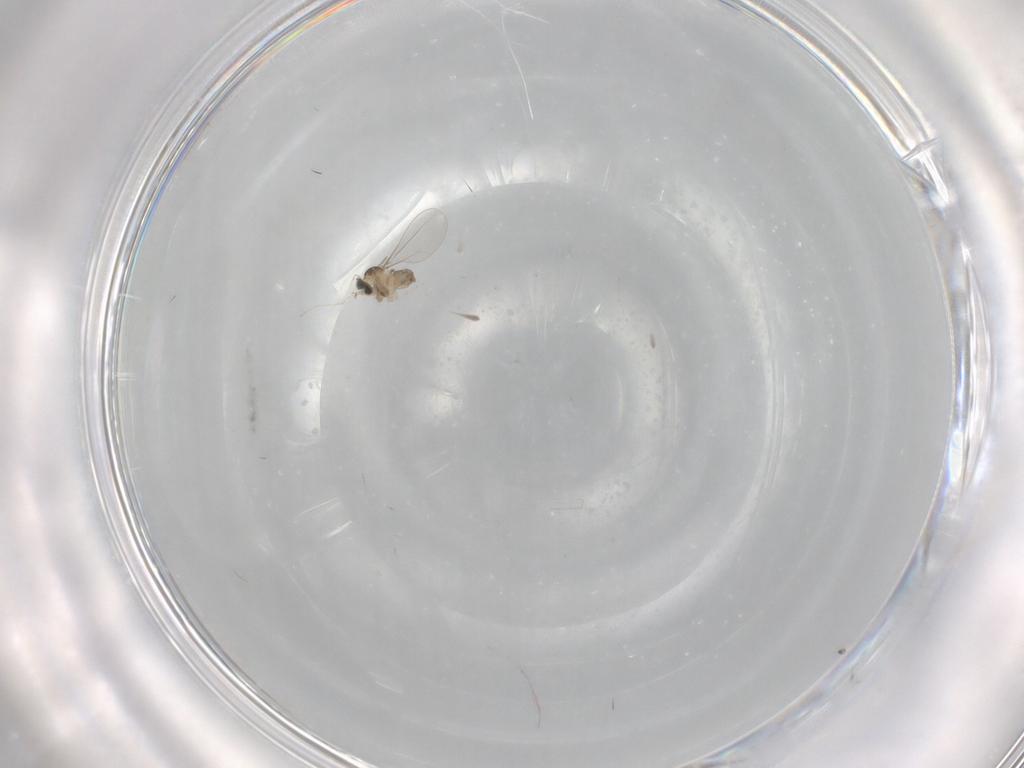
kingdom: Animalia
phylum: Arthropoda
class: Insecta
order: Diptera
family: Cecidomyiidae
